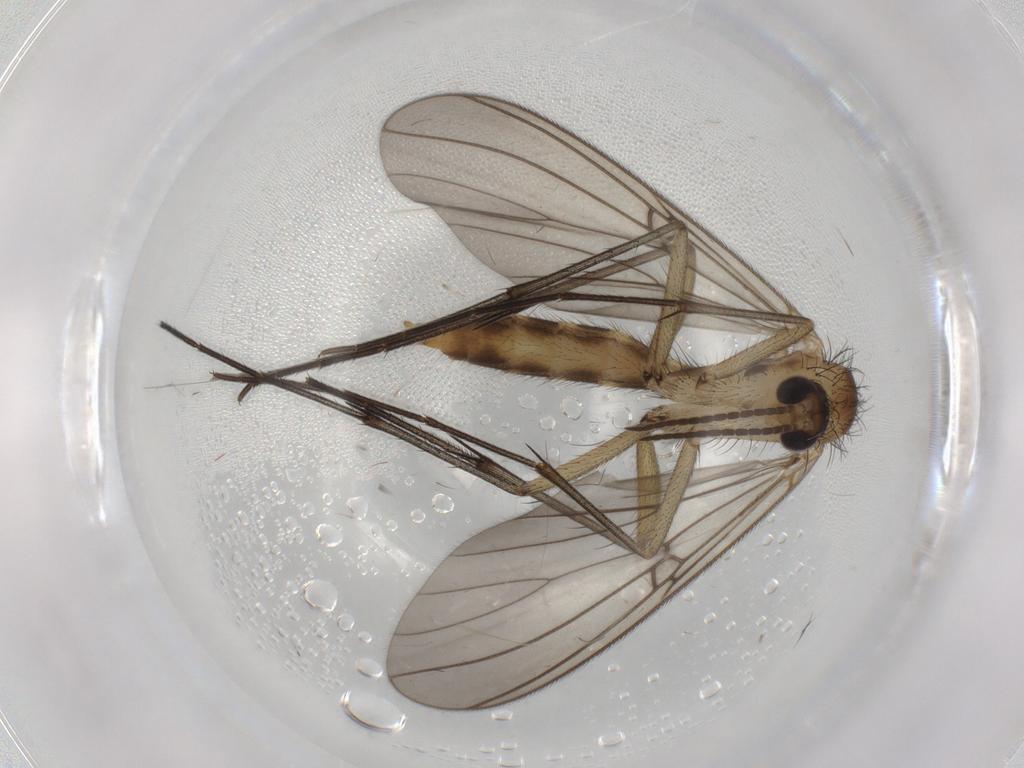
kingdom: Animalia
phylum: Arthropoda
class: Insecta
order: Diptera
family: Mycetophilidae
